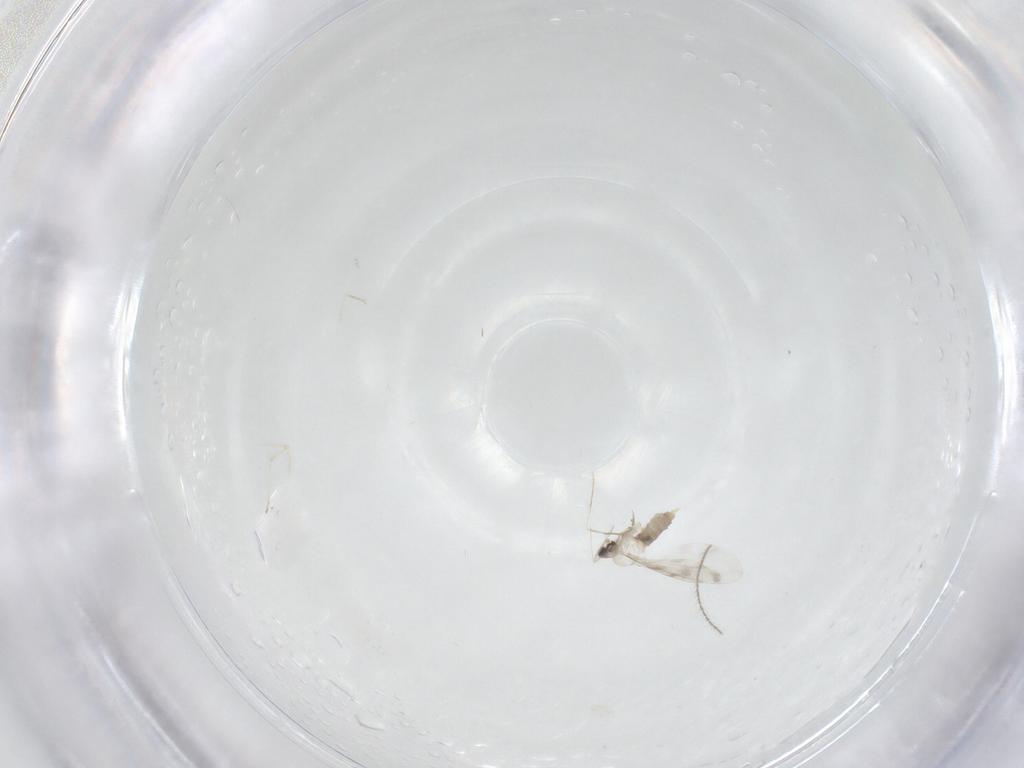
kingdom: Animalia
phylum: Arthropoda
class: Insecta
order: Diptera
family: Cecidomyiidae
